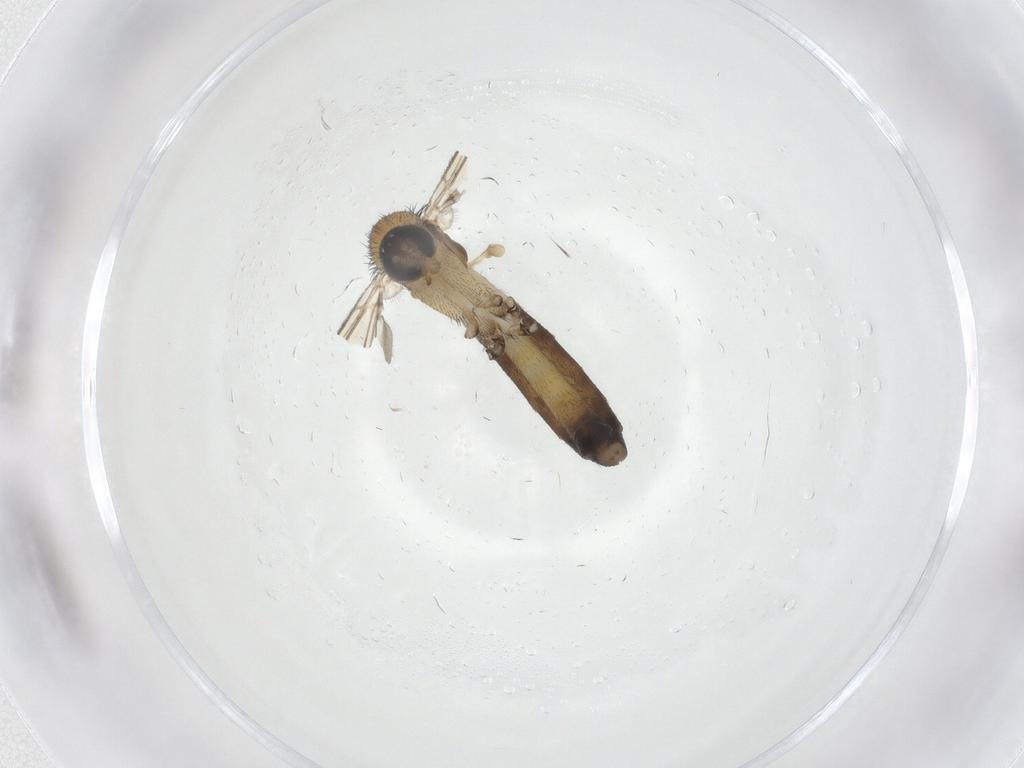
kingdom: Animalia
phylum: Arthropoda
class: Insecta
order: Diptera
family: Keroplatidae
